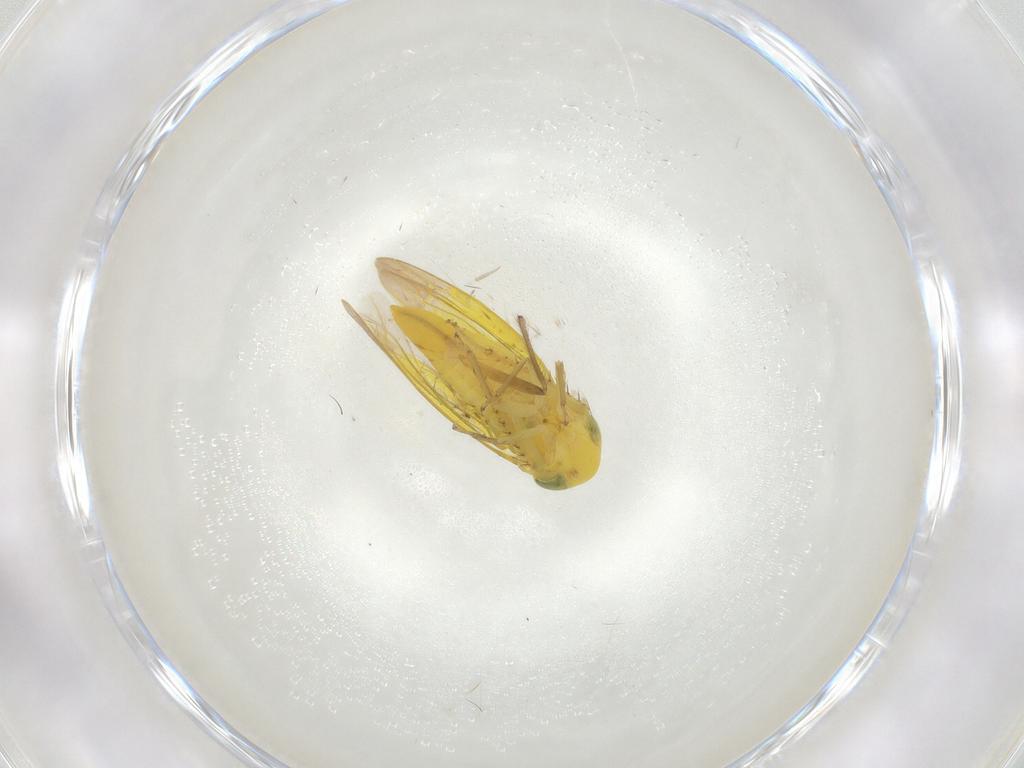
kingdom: Animalia
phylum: Arthropoda
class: Insecta
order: Hemiptera
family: Cicadellidae
